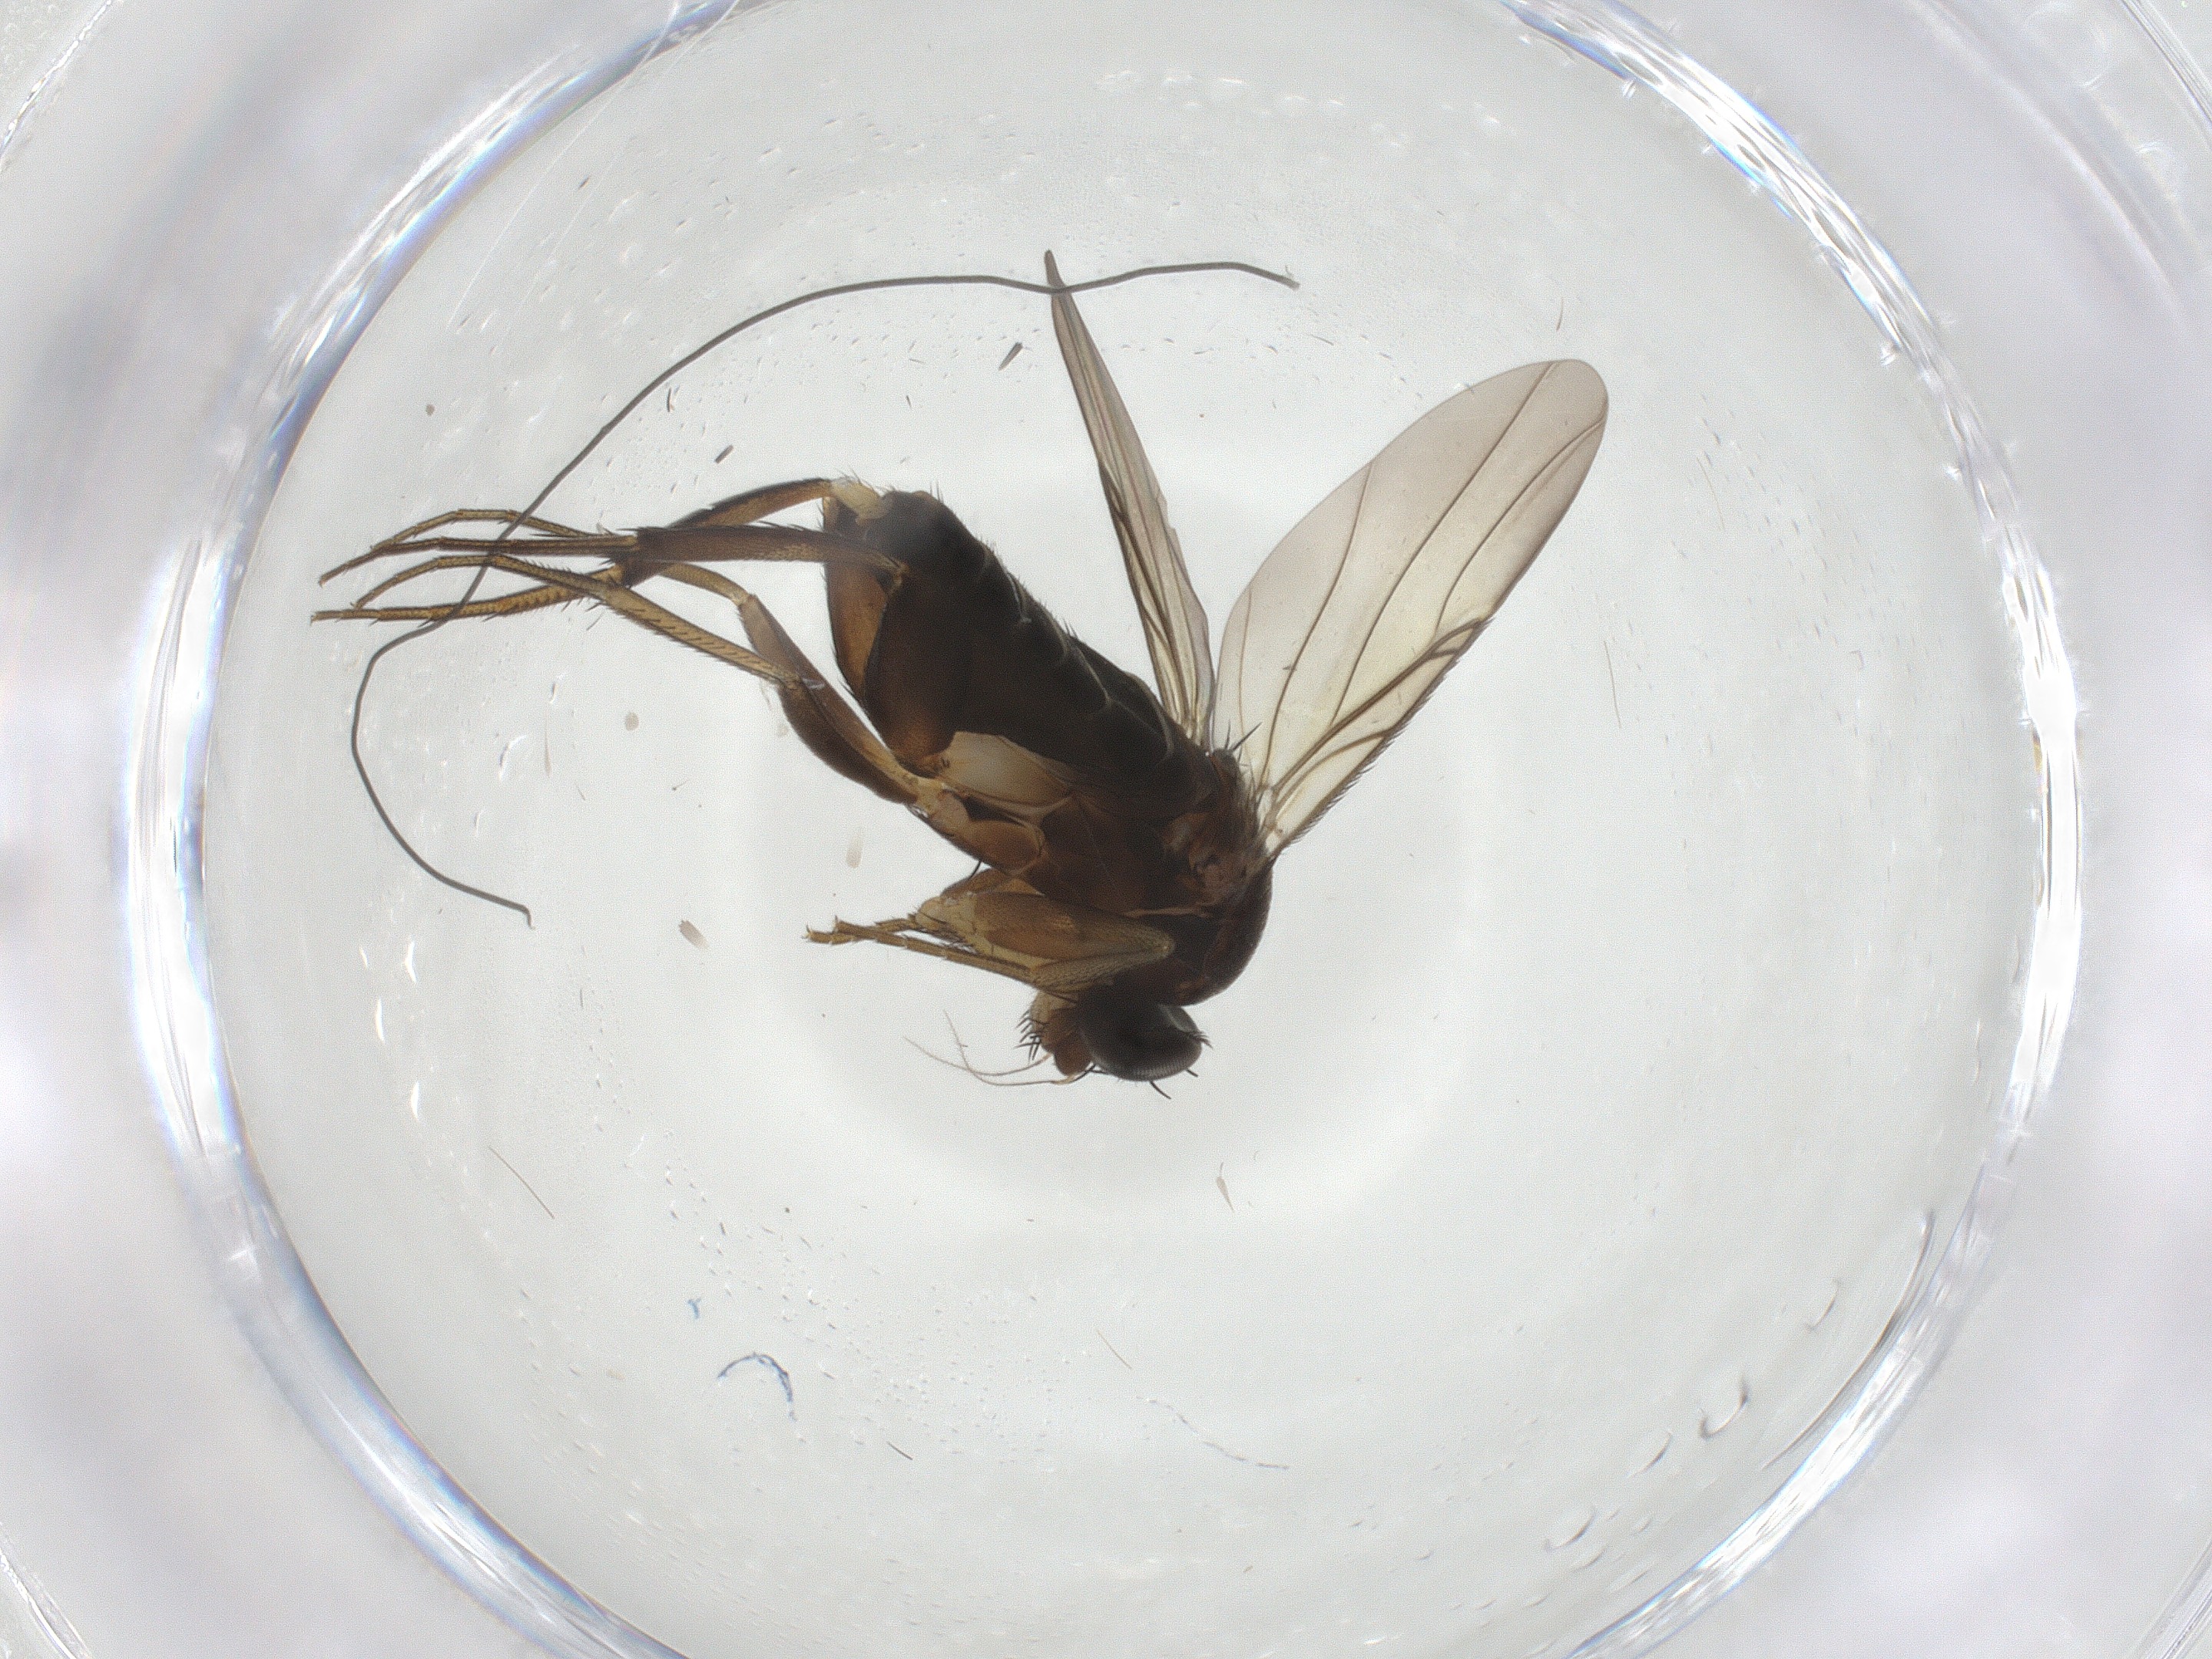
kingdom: Animalia
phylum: Arthropoda
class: Insecta
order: Diptera
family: Phoridae
